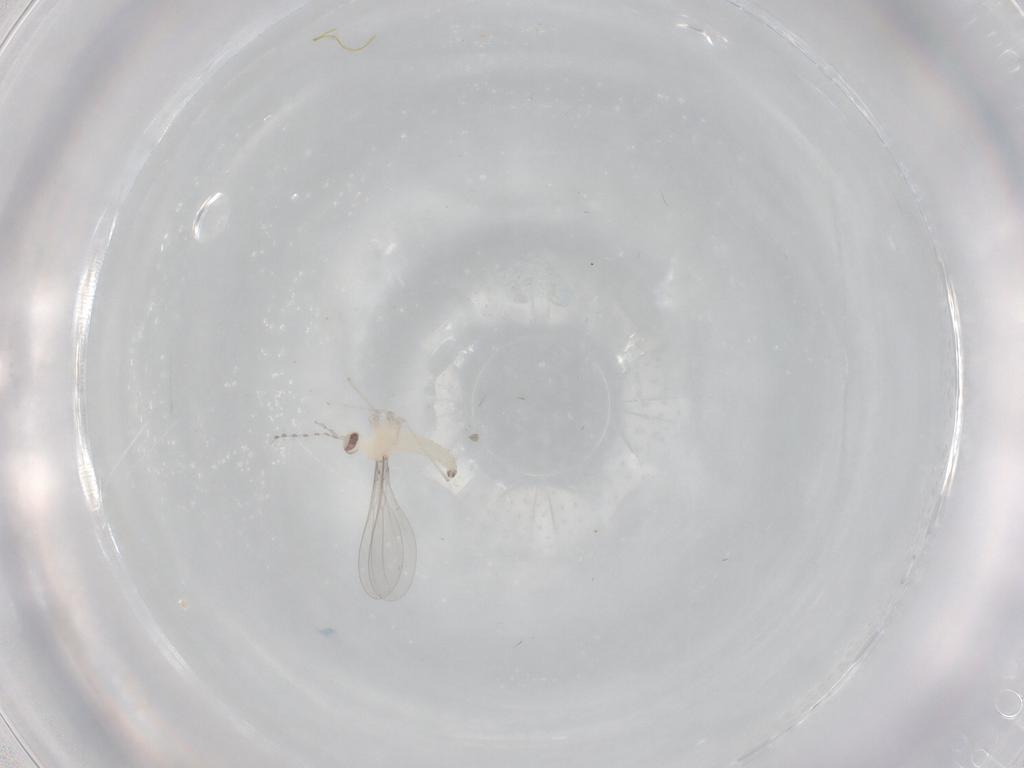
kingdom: Animalia
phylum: Arthropoda
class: Insecta
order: Diptera
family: Cecidomyiidae
